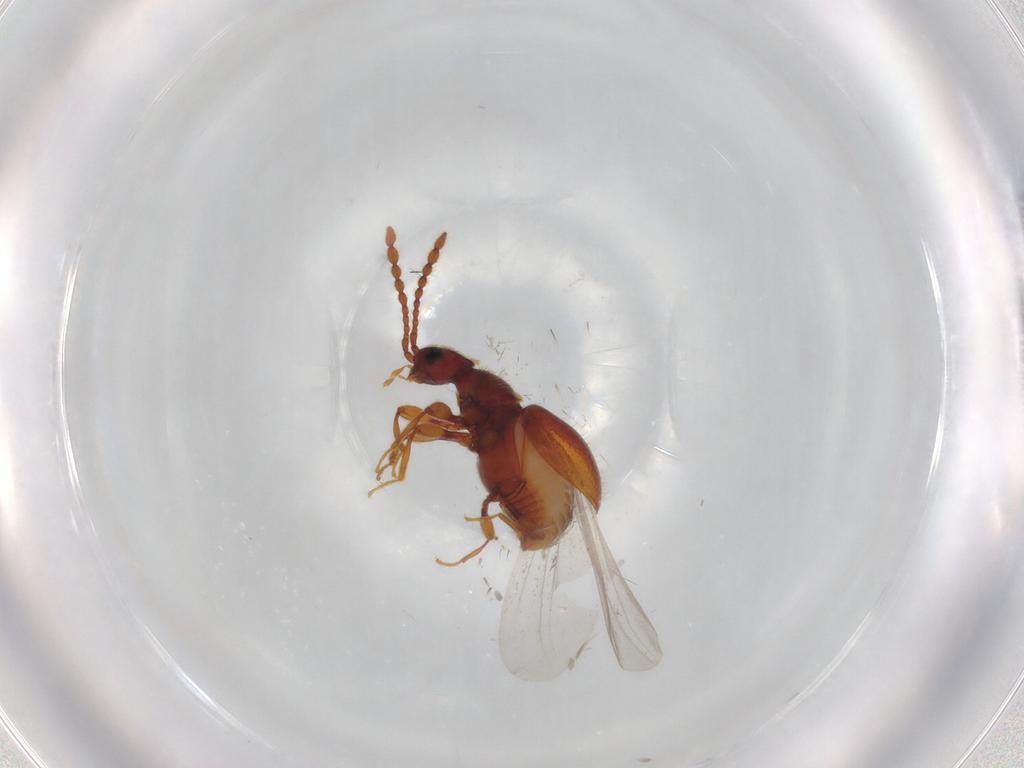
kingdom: Animalia
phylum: Arthropoda
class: Insecta
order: Coleoptera
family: Staphylinidae
